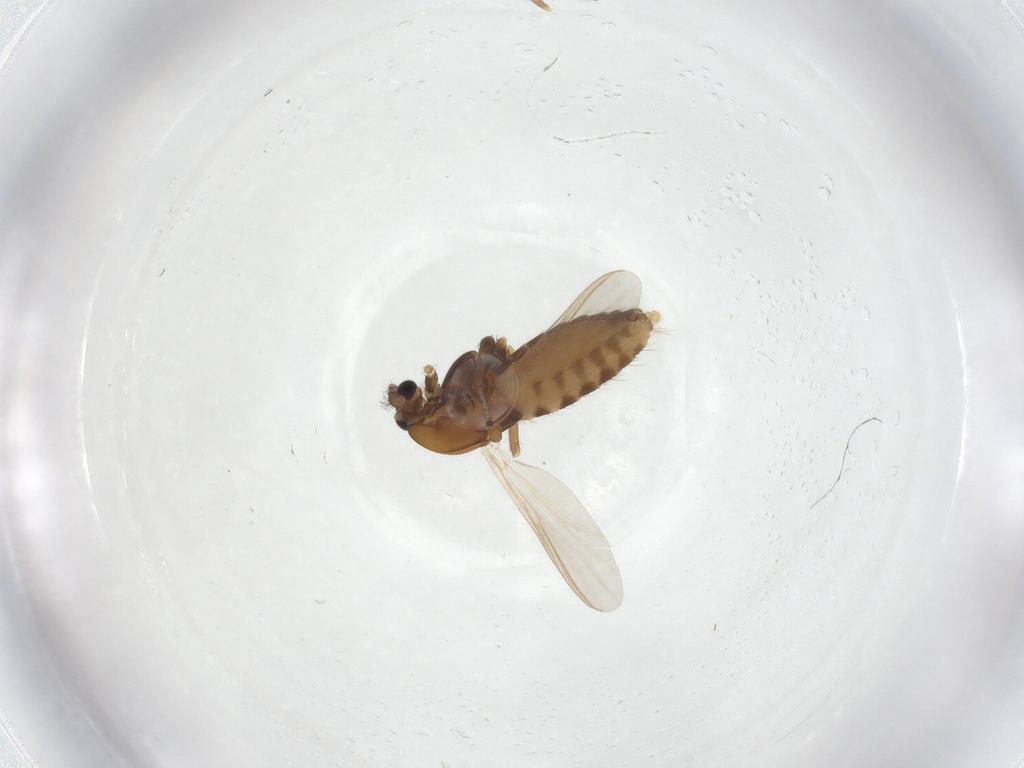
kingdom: Animalia
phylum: Arthropoda
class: Insecta
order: Diptera
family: Chironomidae
